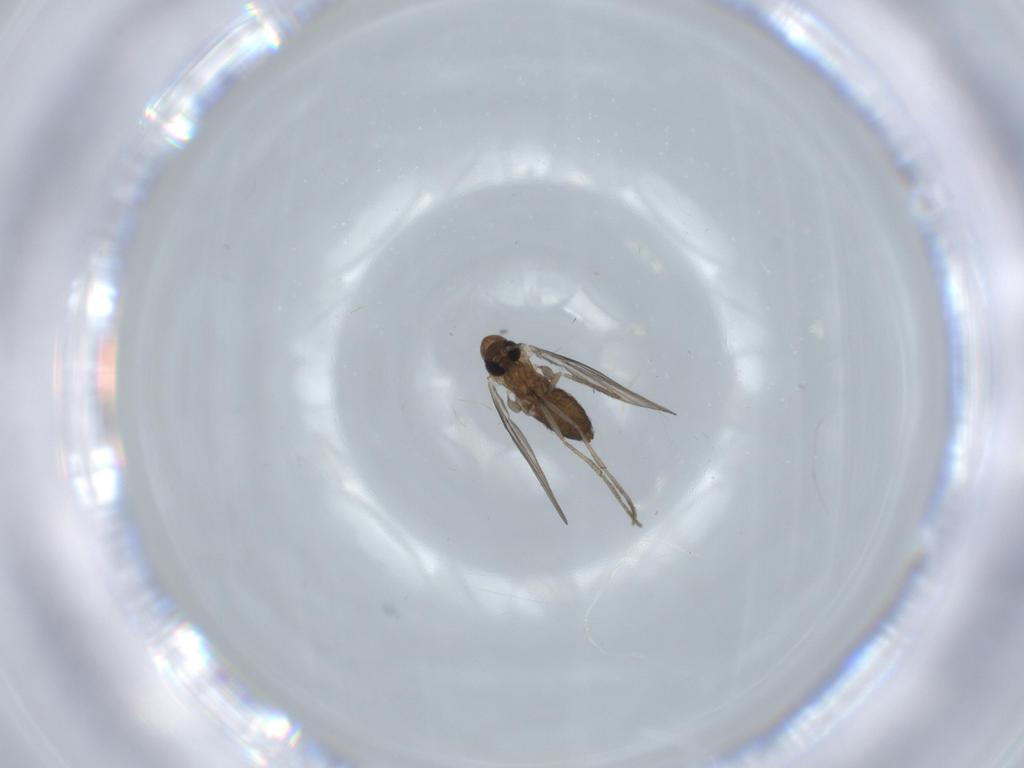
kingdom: Animalia
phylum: Arthropoda
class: Insecta
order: Diptera
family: Psychodidae
